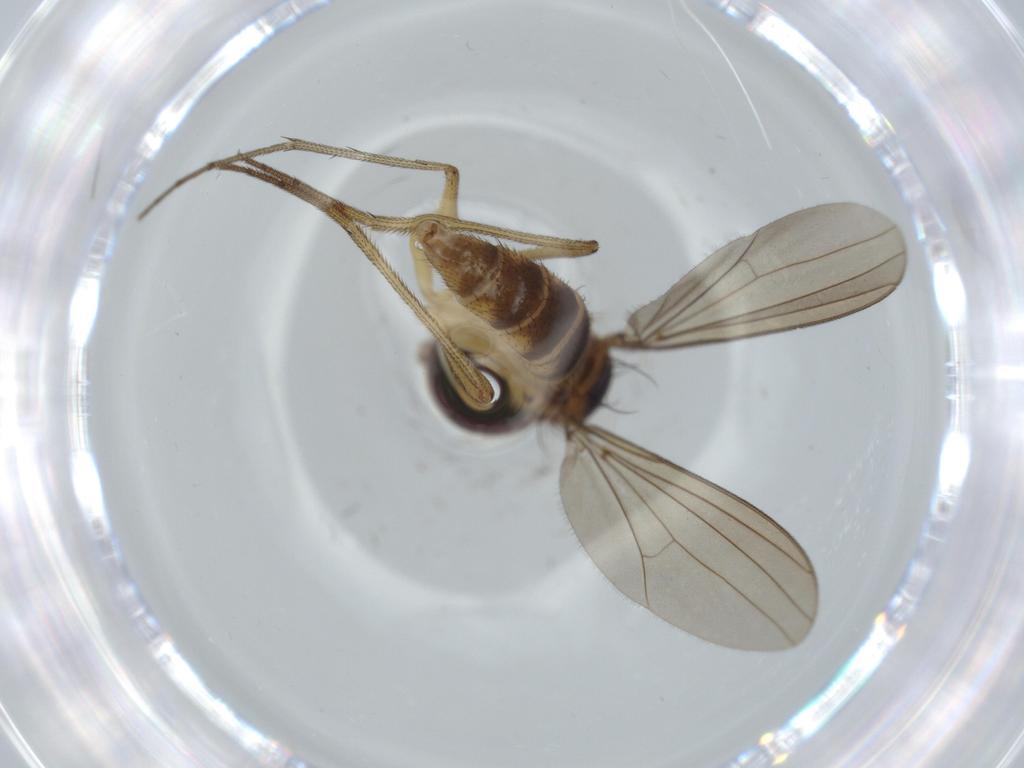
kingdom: Animalia
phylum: Arthropoda
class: Insecta
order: Diptera
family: Dolichopodidae
